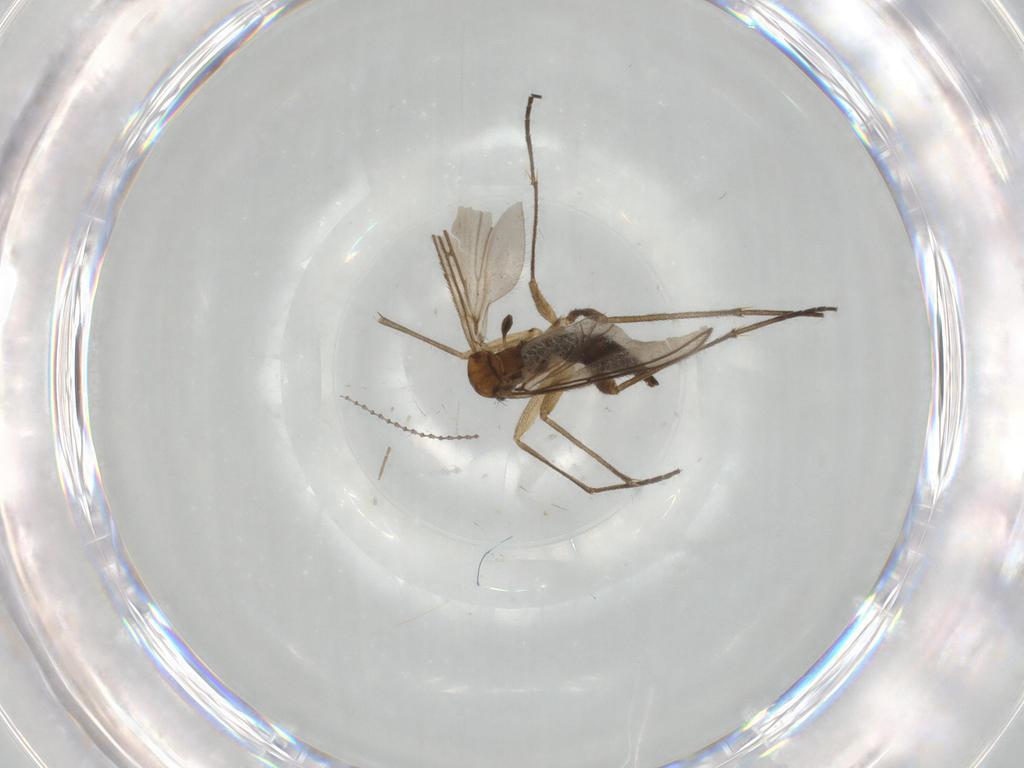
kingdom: Animalia
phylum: Arthropoda
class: Insecta
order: Diptera
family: Sciaridae
